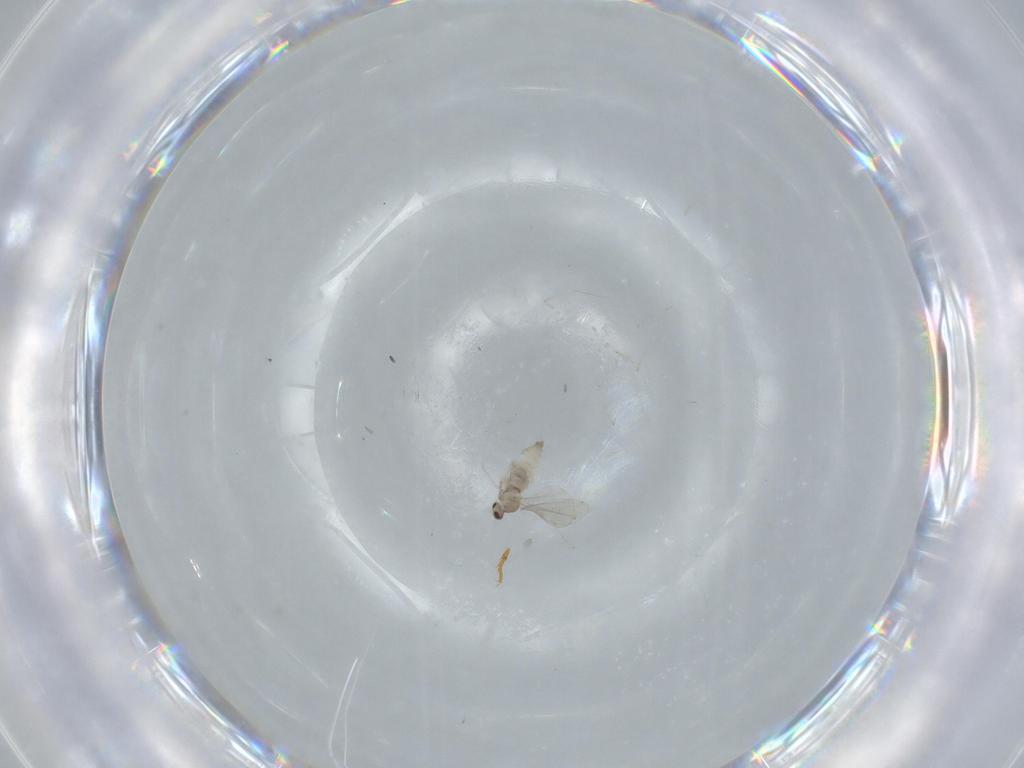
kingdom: Animalia
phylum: Arthropoda
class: Insecta
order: Diptera
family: Cecidomyiidae
